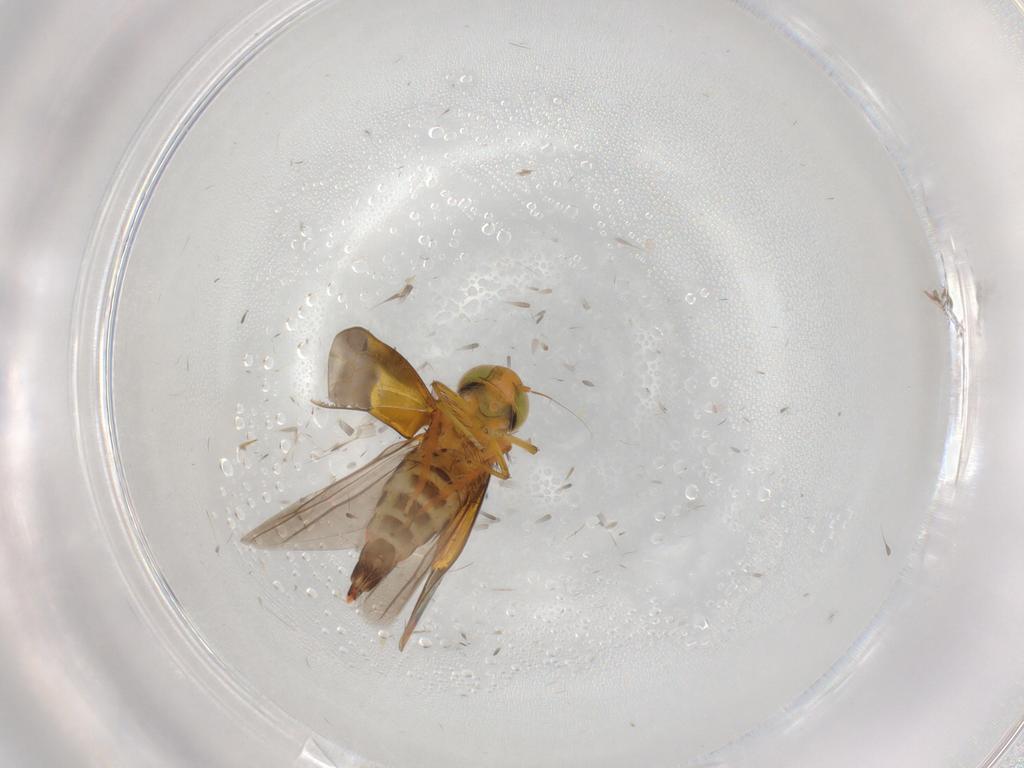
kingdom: Animalia
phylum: Arthropoda
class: Insecta
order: Hemiptera
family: Cicadellidae
